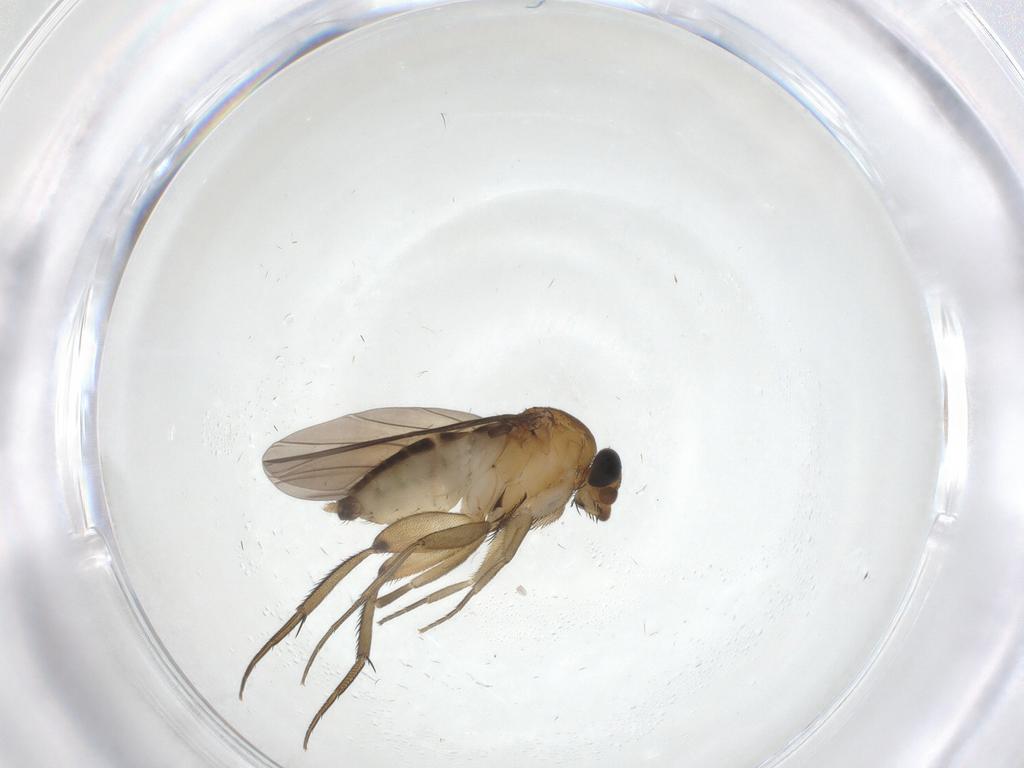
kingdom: Animalia
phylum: Arthropoda
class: Insecta
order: Diptera
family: Phoridae
